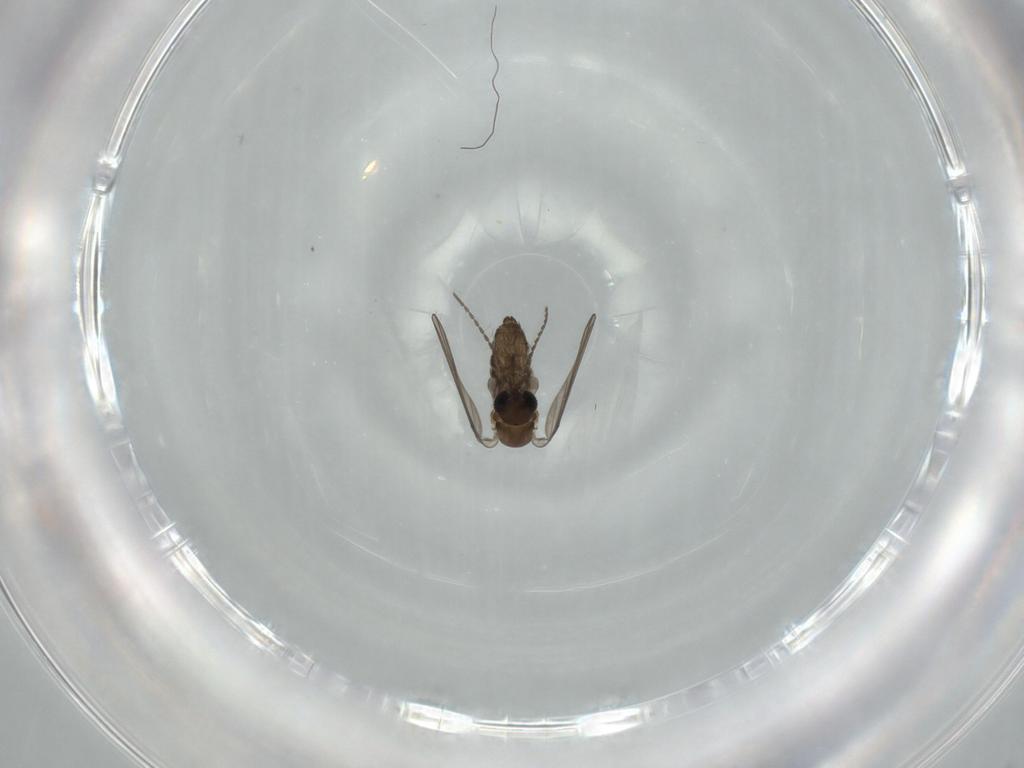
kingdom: Animalia
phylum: Arthropoda
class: Insecta
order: Diptera
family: Psychodidae
